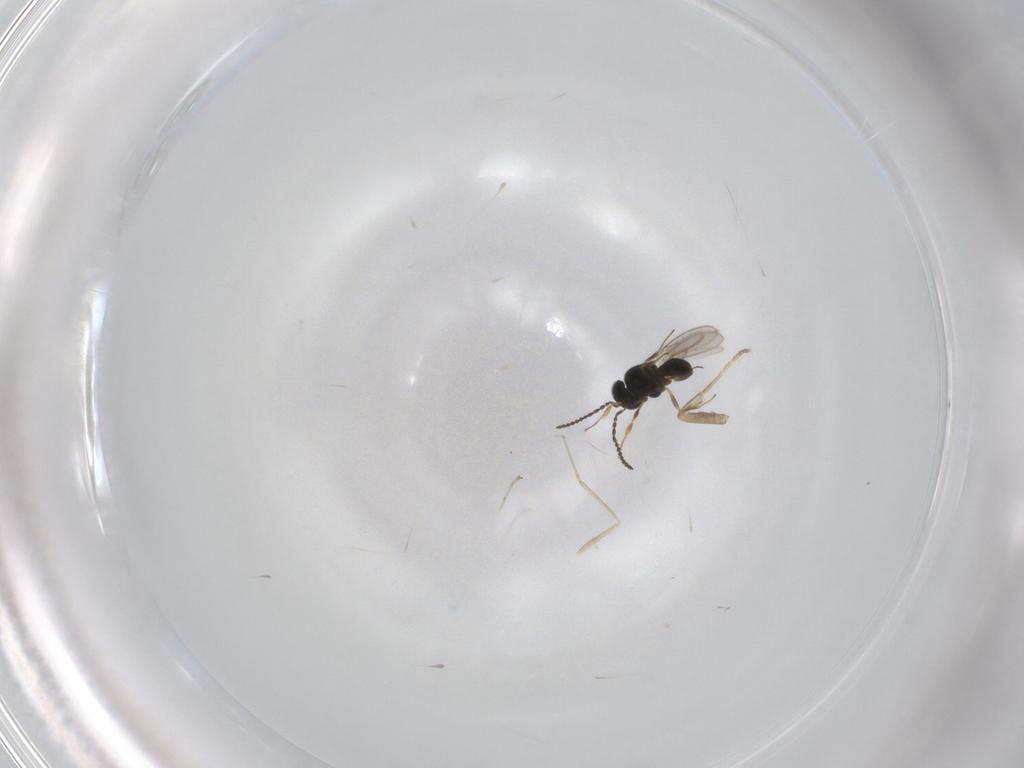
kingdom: Animalia
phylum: Arthropoda
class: Insecta
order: Hymenoptera
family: Scelionidae
